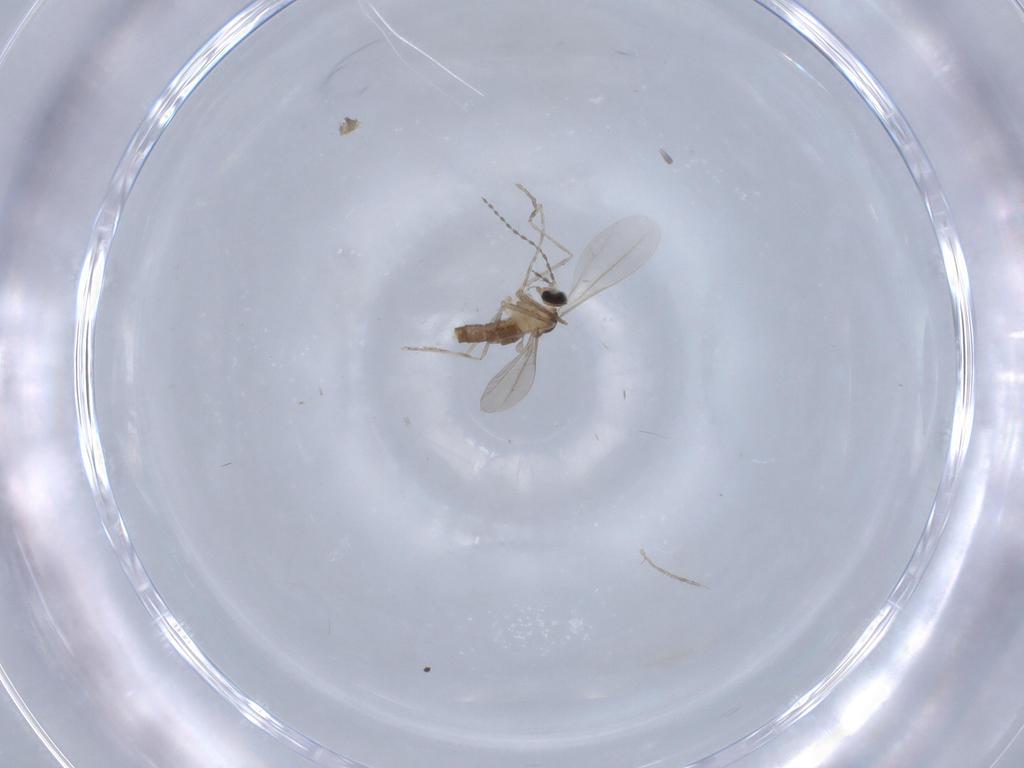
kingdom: Animalia
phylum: Arthropoda
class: Insecta
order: Diptera
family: Cecidomyiidae
